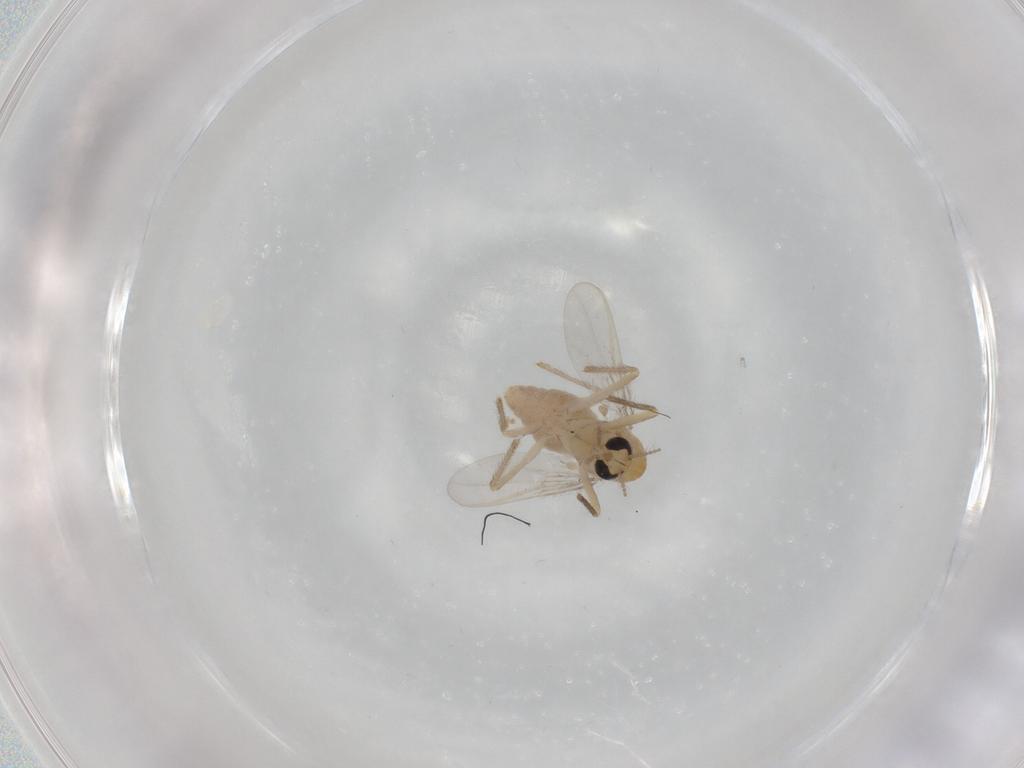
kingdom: Animalia
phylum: Arthropoda
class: Insecta
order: Diptera
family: Chironomidae
